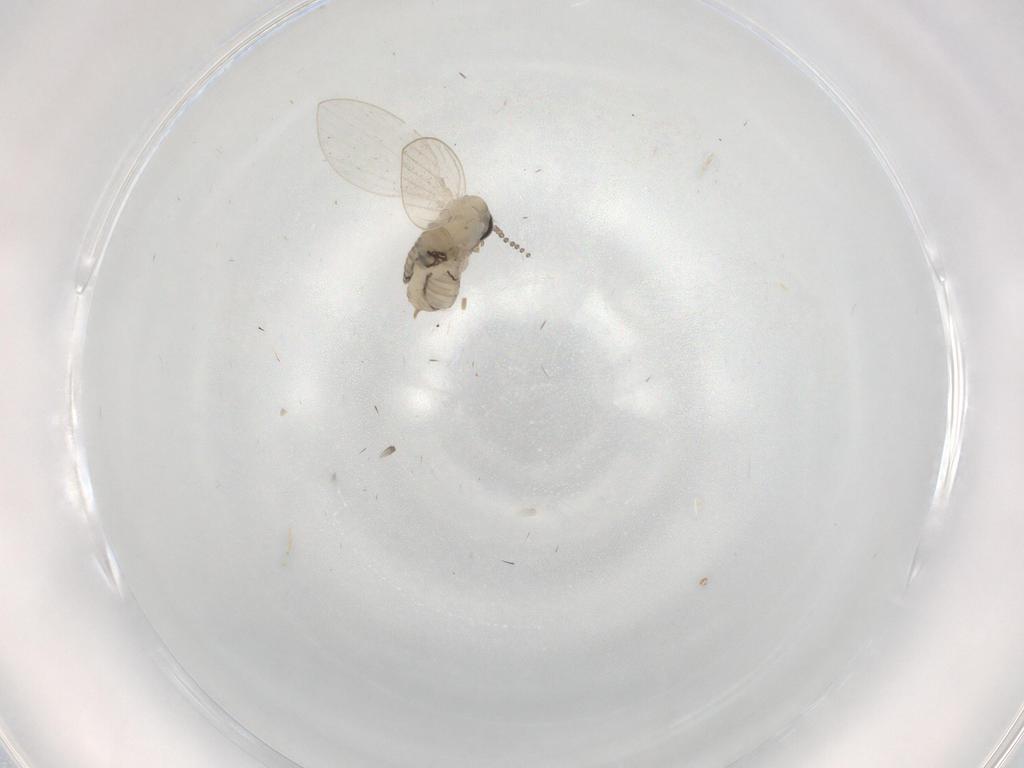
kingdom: Animalia
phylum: Arthropoda
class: Insecta
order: Diptera
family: Psychodidae
